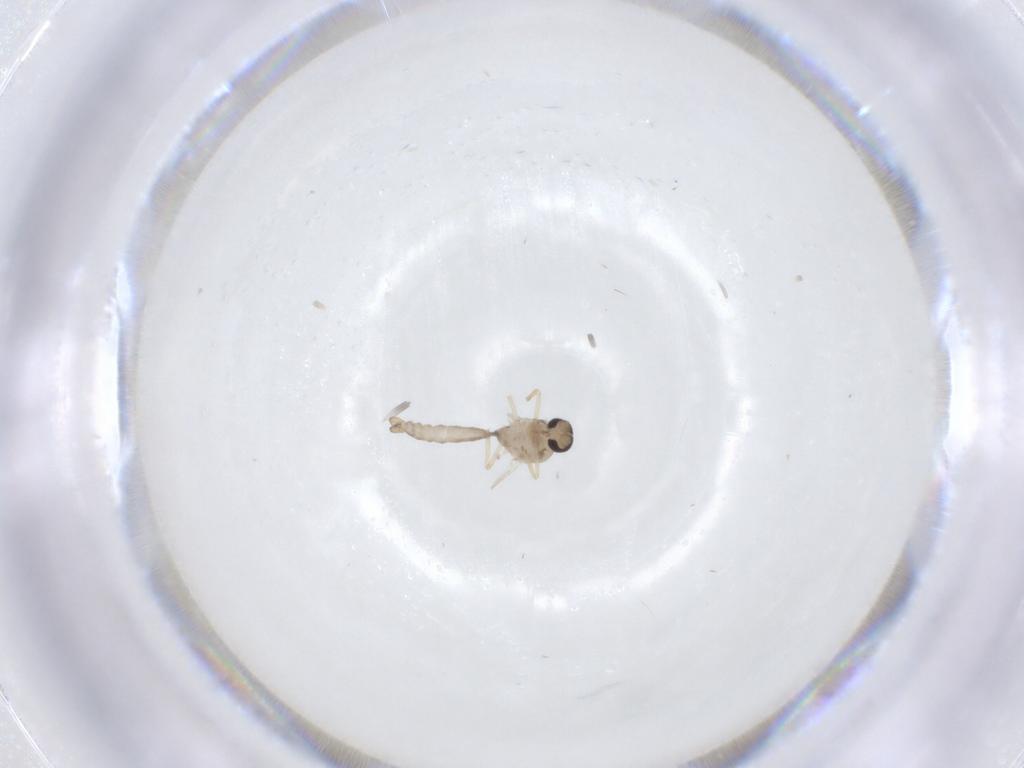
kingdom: Animalia
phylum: Arthropoda
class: Insecta
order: Diptera
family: Ceratopogonidae
